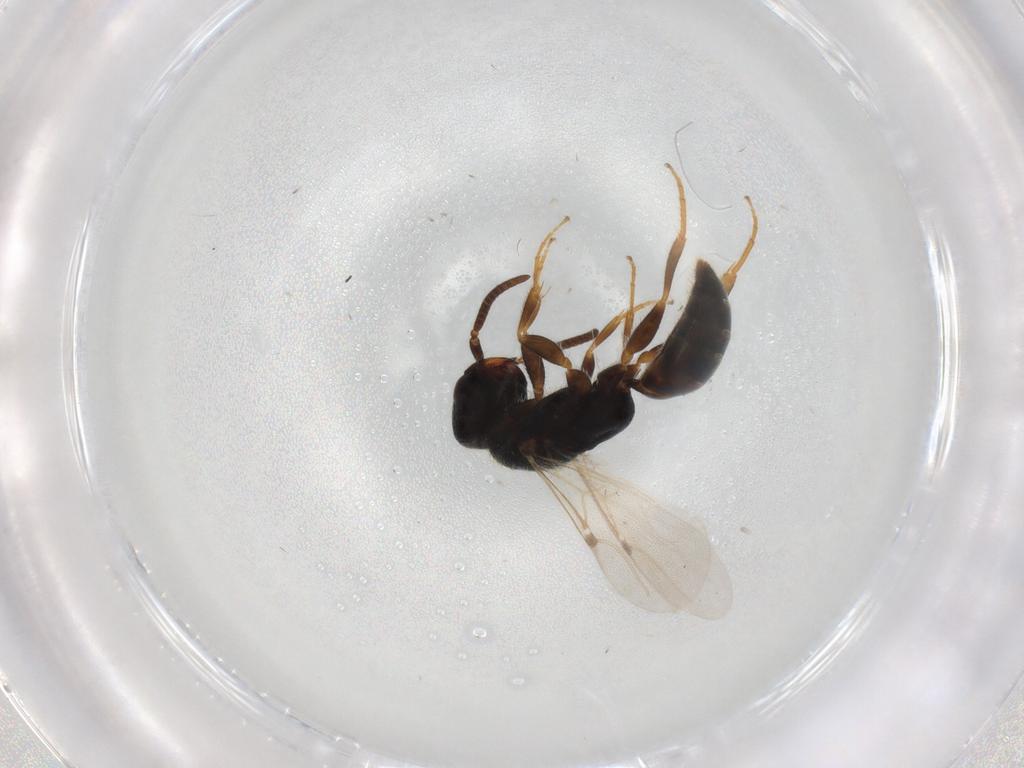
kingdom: Animalia
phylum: Arthropoda
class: Insecta
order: Hymenoptera
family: Bethylidae
